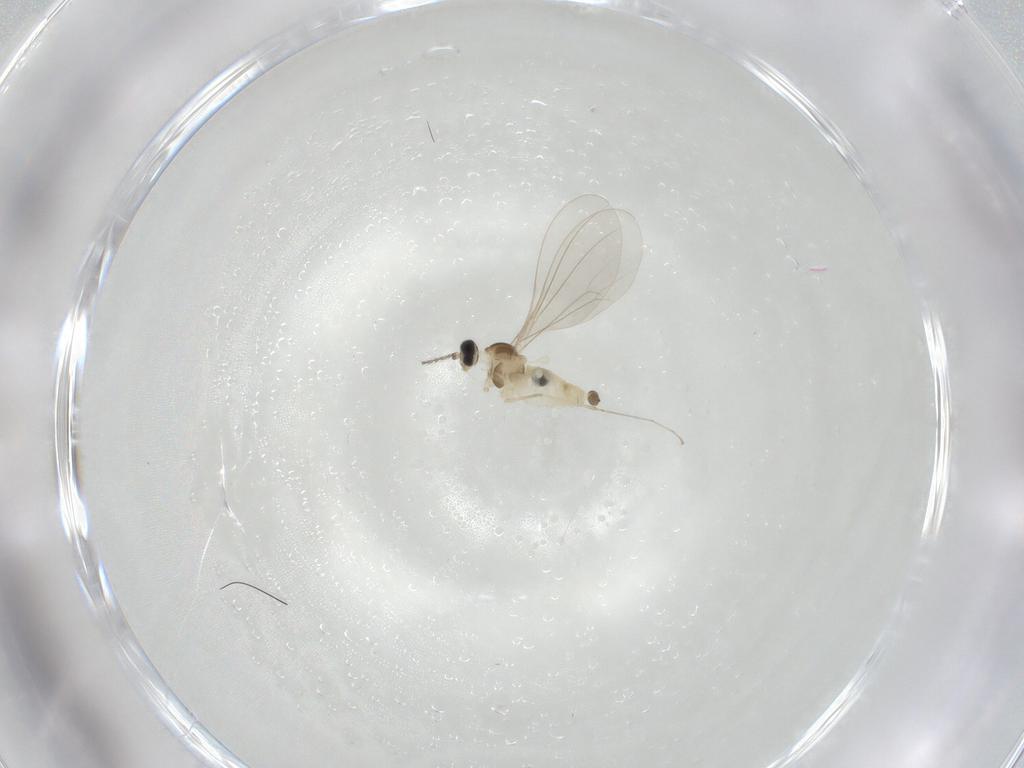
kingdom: Animalia
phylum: Arthropoda
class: Insecta
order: Diptera
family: Cecidomyiidae
